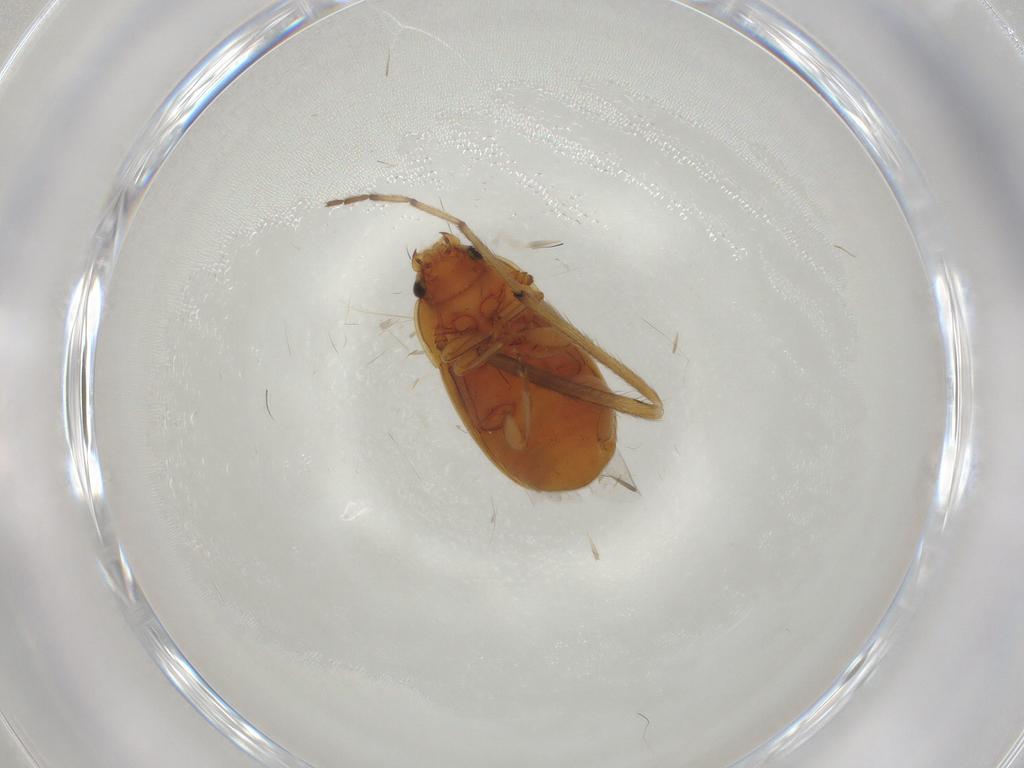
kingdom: Animalia
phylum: Arthropoda
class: Insecta
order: Coleoptera
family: Nitidulidae
